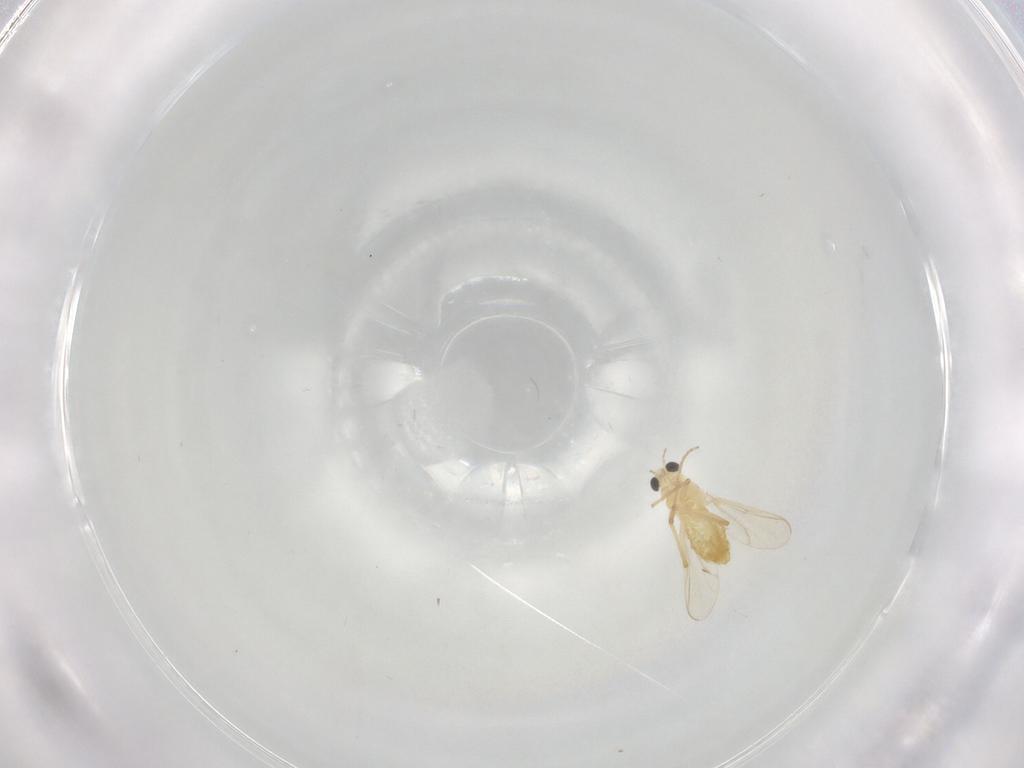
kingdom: Animalia
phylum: Arthropoda
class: Insecta
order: Diptera
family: Chironomidae
